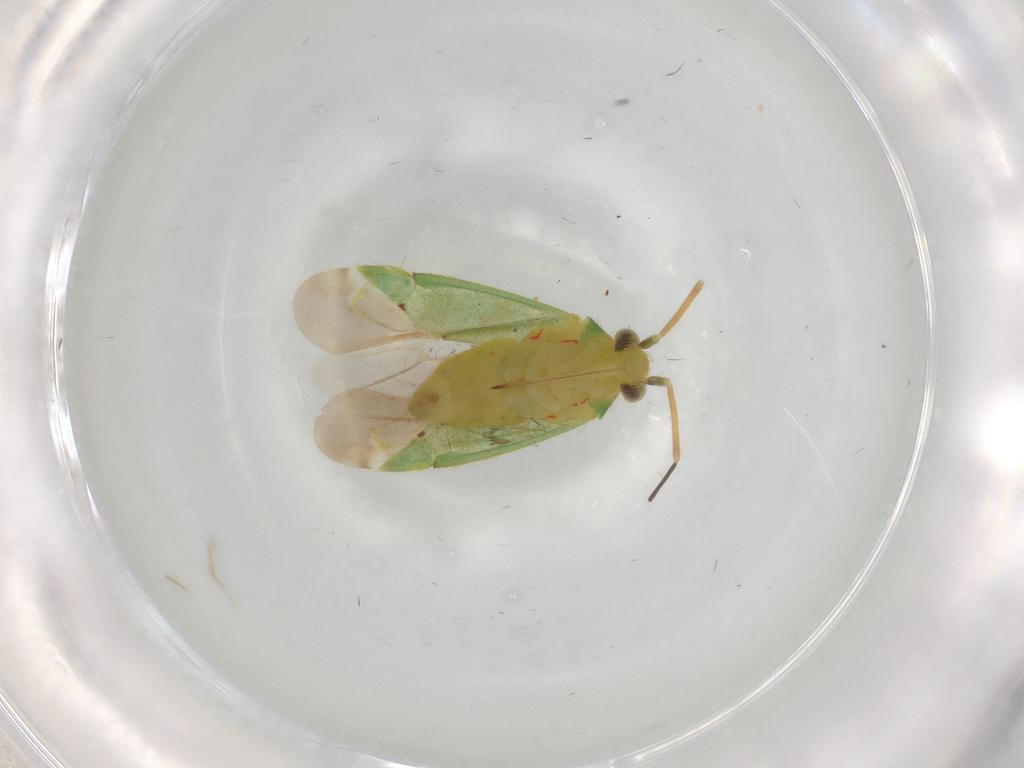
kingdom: Animalia
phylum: Arthropoda
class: Insecta
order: Hemiptera
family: Miridae
